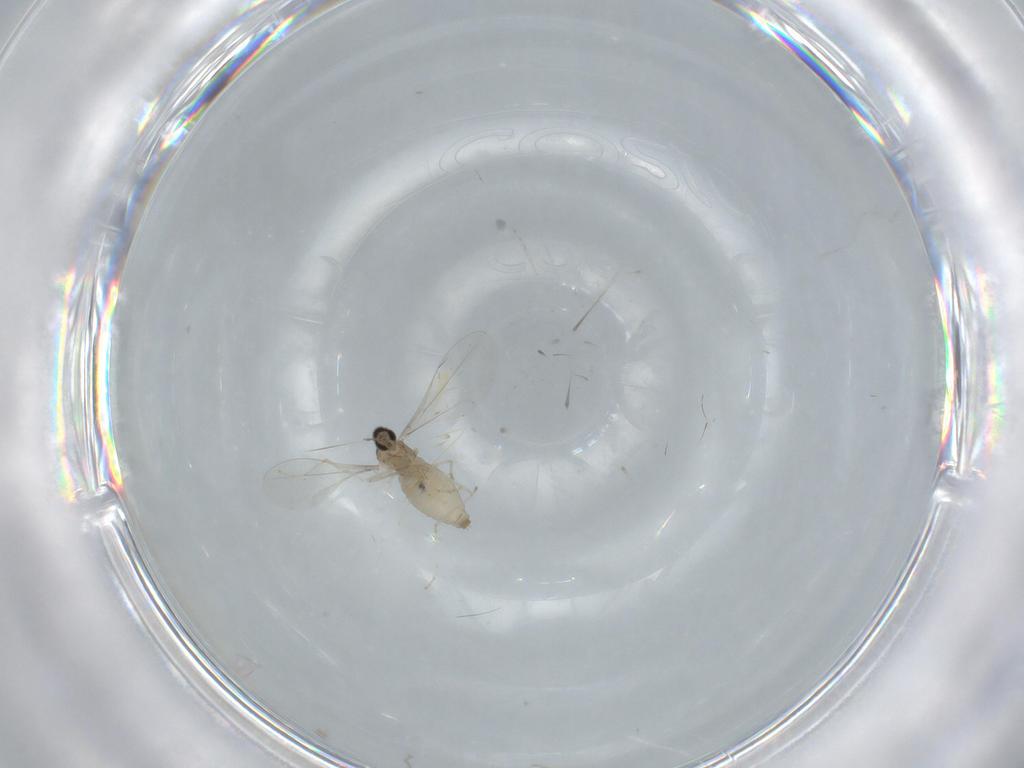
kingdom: Animalia
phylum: Arthropoda
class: Insecta
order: Diptera
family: Cecidomyiidae
